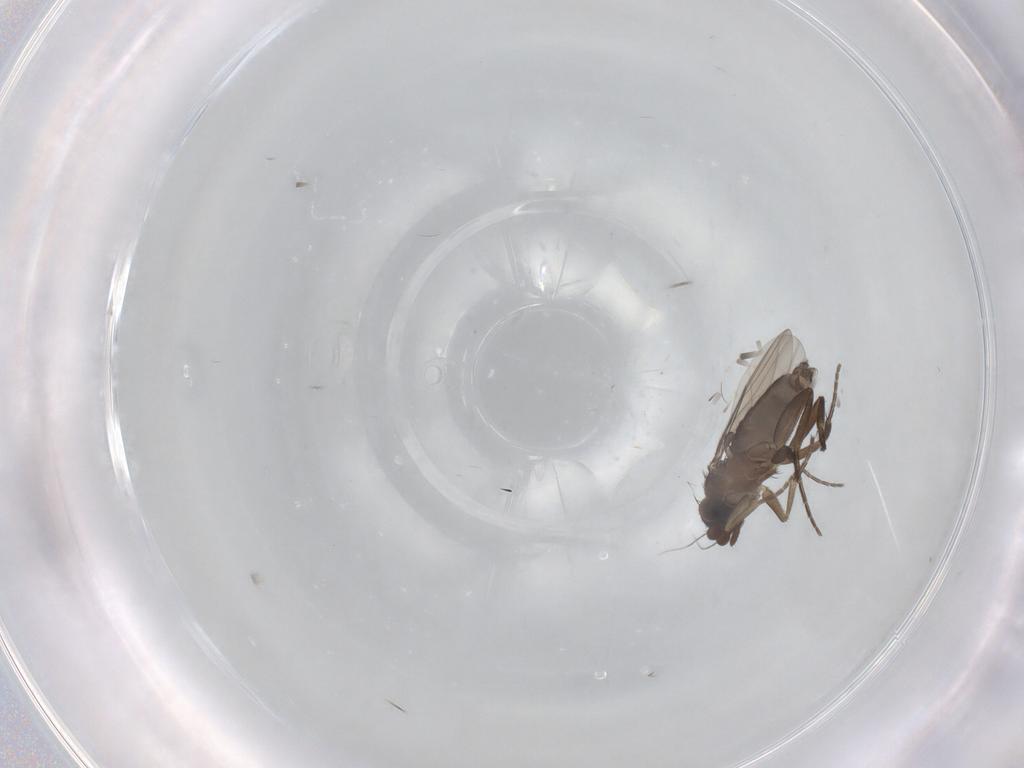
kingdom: Animalia
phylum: Arthropoda
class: Insecta
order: Diptera
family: Phoridae
